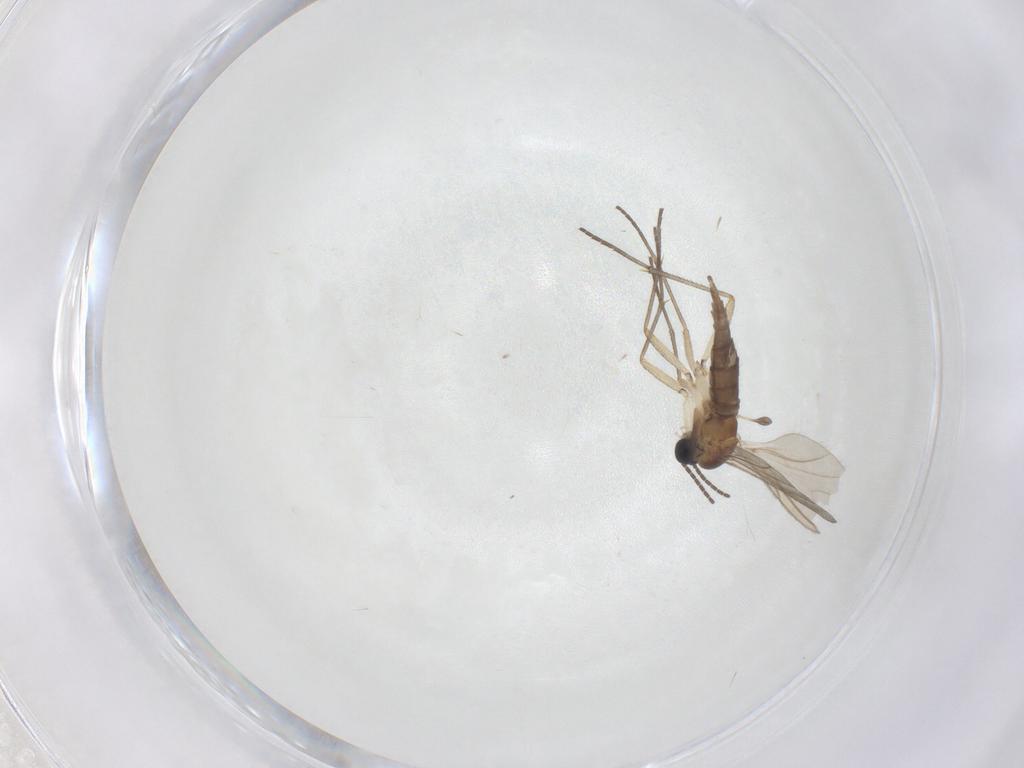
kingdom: Animalia
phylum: Arthropoda
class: Insecta
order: Diptera
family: Sciaridae
